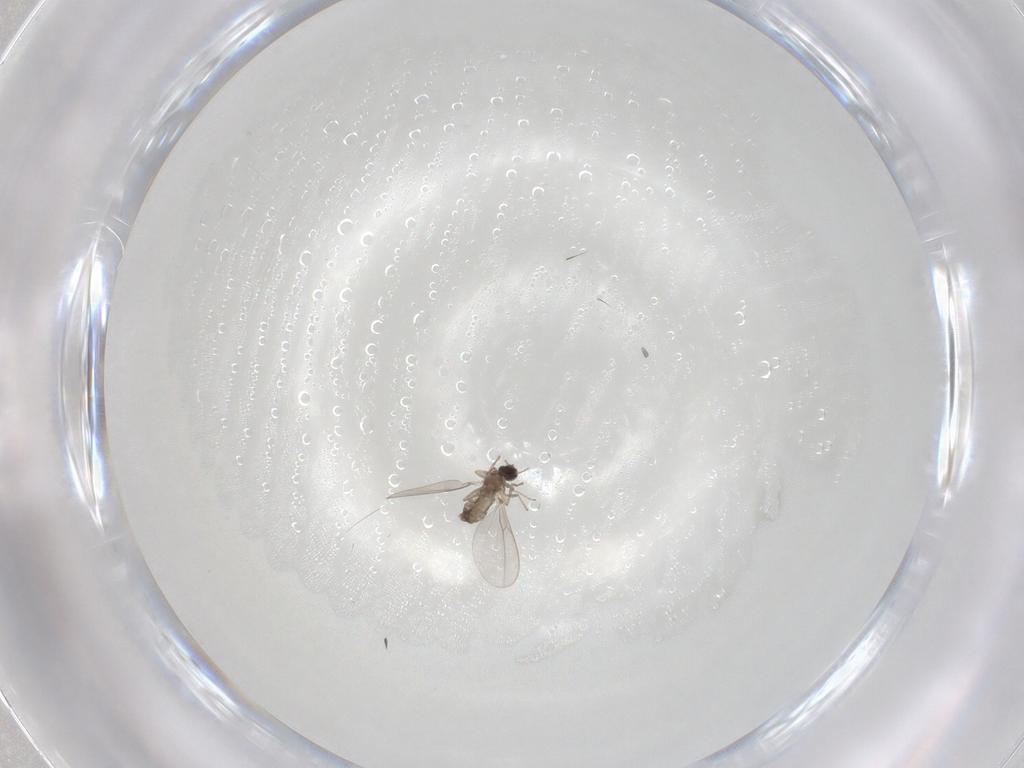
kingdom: Animalia
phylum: Arthropoda
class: Insecta
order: Diptera
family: Cecidomyiidae
